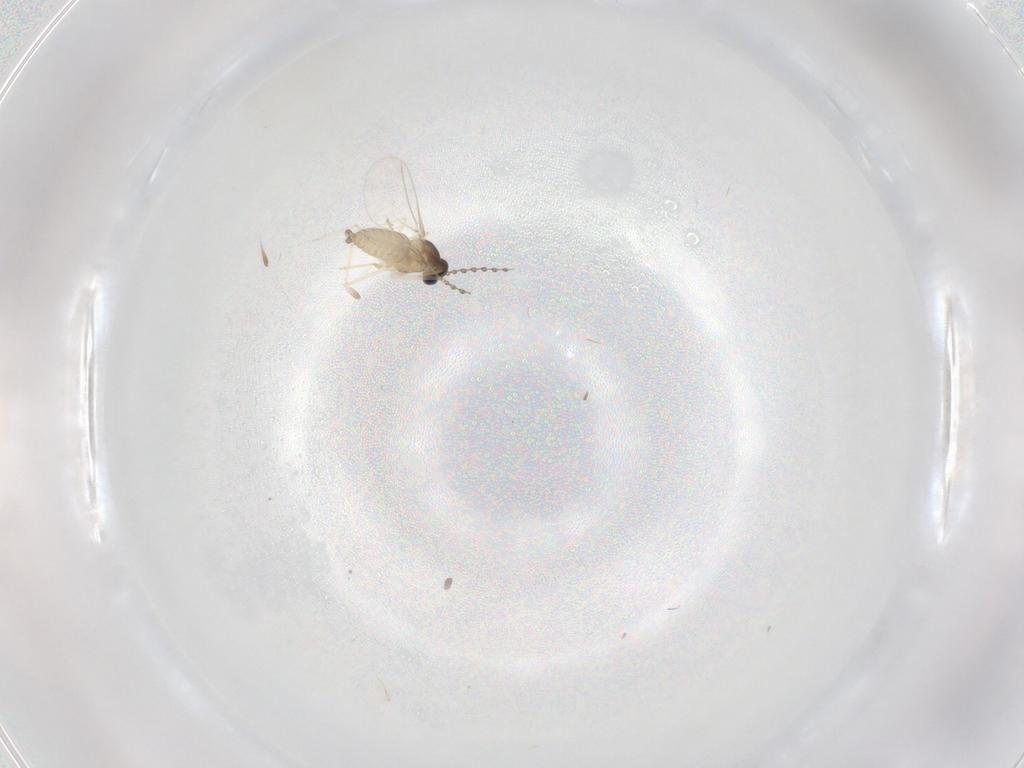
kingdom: Animalia
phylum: Arthropoda
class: Insecta
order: Diptera
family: Cecidomyiidae
